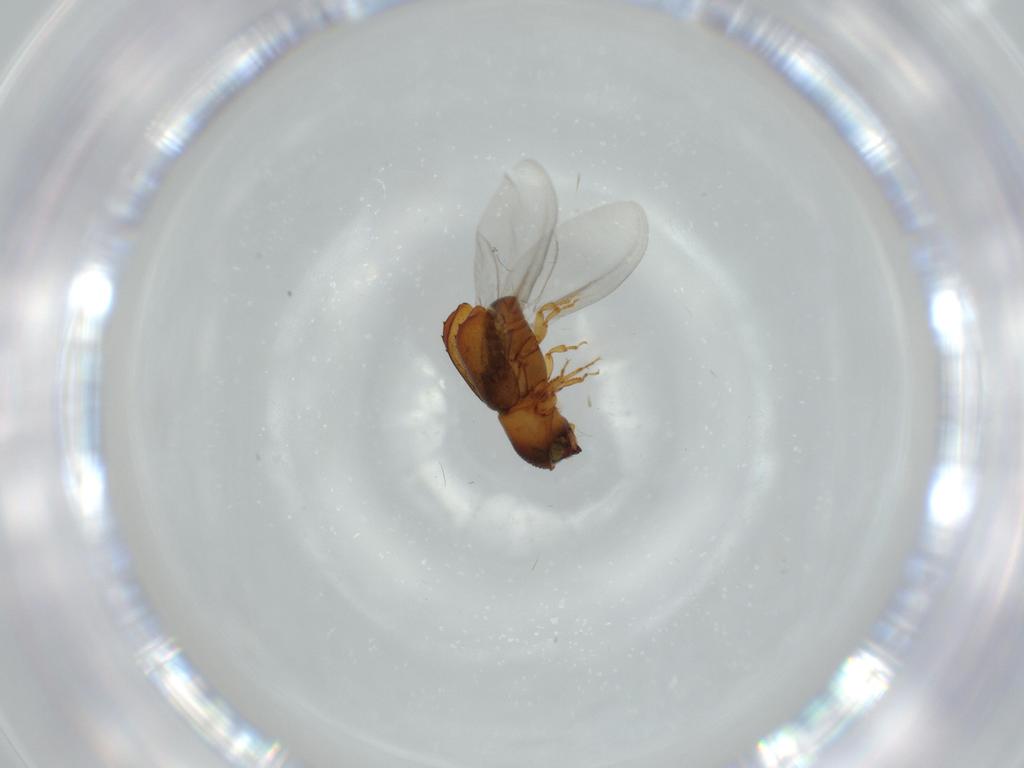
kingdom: Animalia
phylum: Arthropoda
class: Insecta
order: Coleoptera
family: Curculionidae
